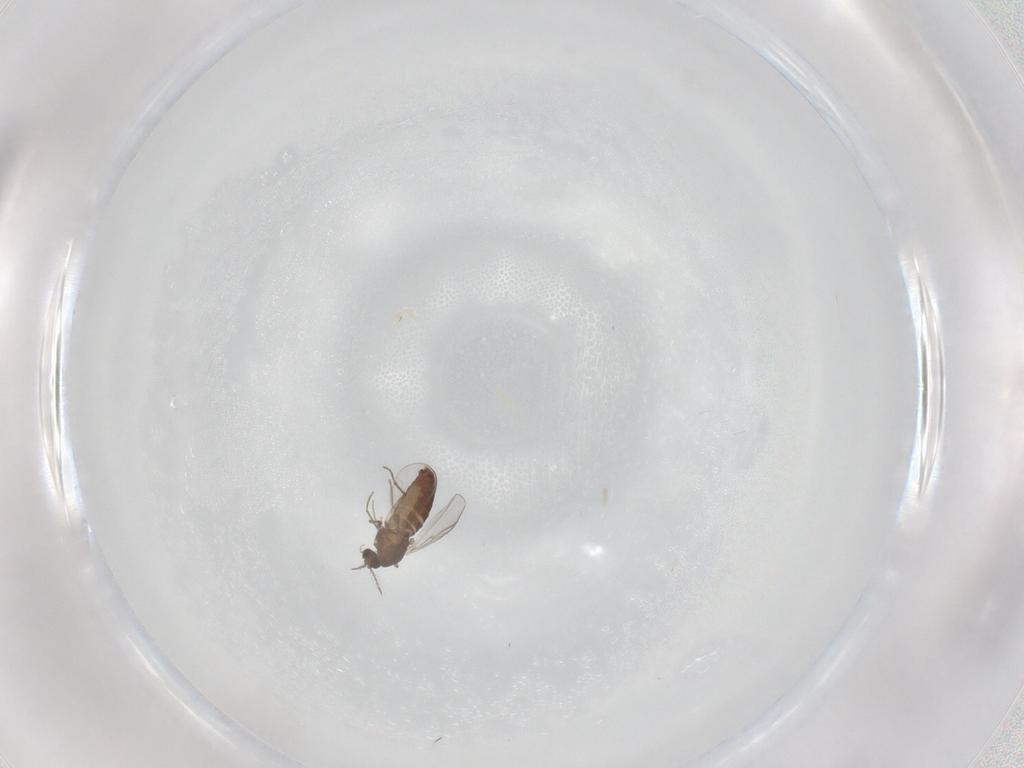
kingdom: Animalia
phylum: Arthropoda
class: Insecta
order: Diptera
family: Chironomidae
